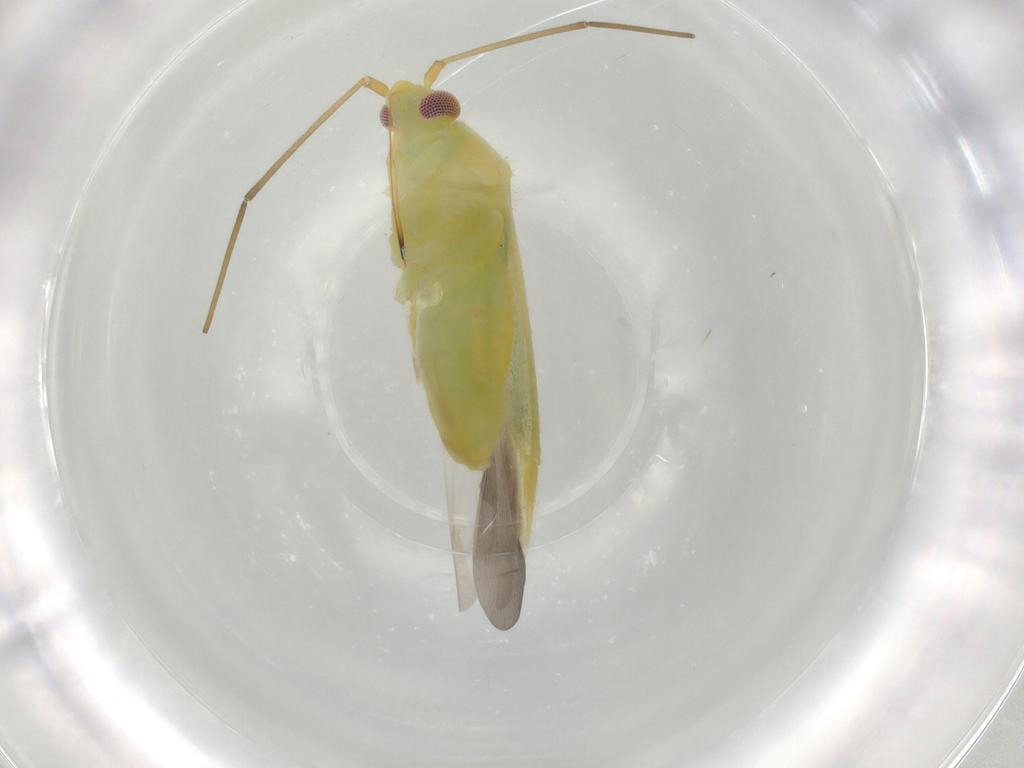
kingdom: Animalia
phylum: Arthropoda
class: Insecta
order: Hemiptera
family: Miridae
